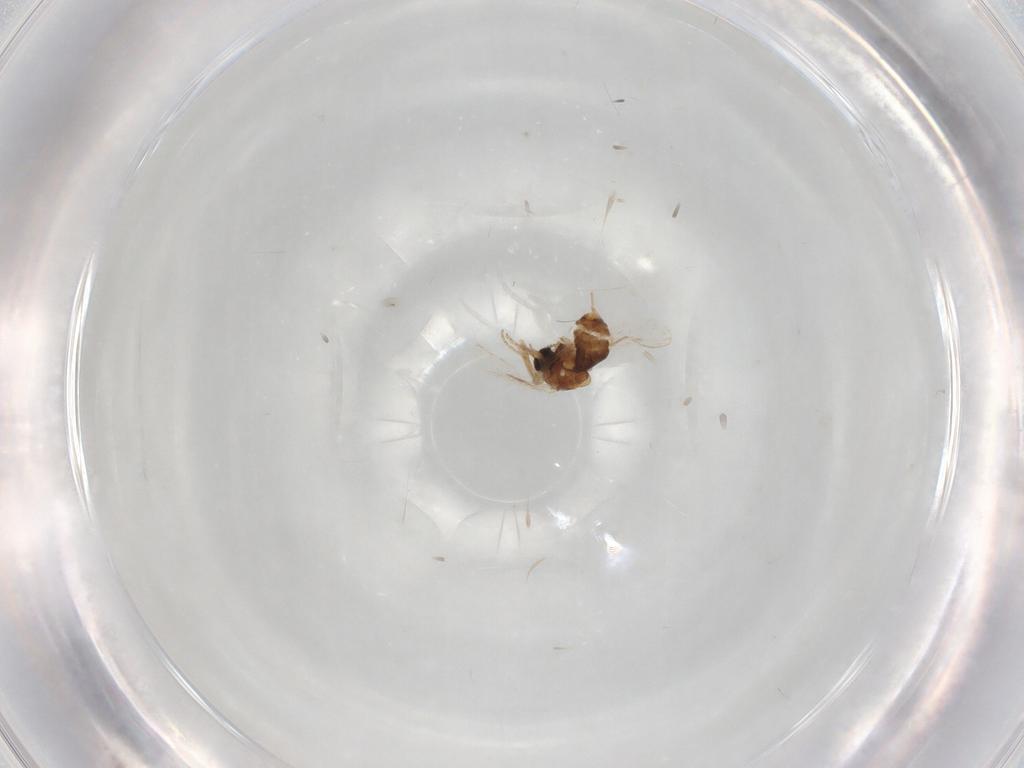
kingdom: Animalia
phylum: Arthropoda
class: Insecta
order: Diptera
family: Ceratopogonidae
